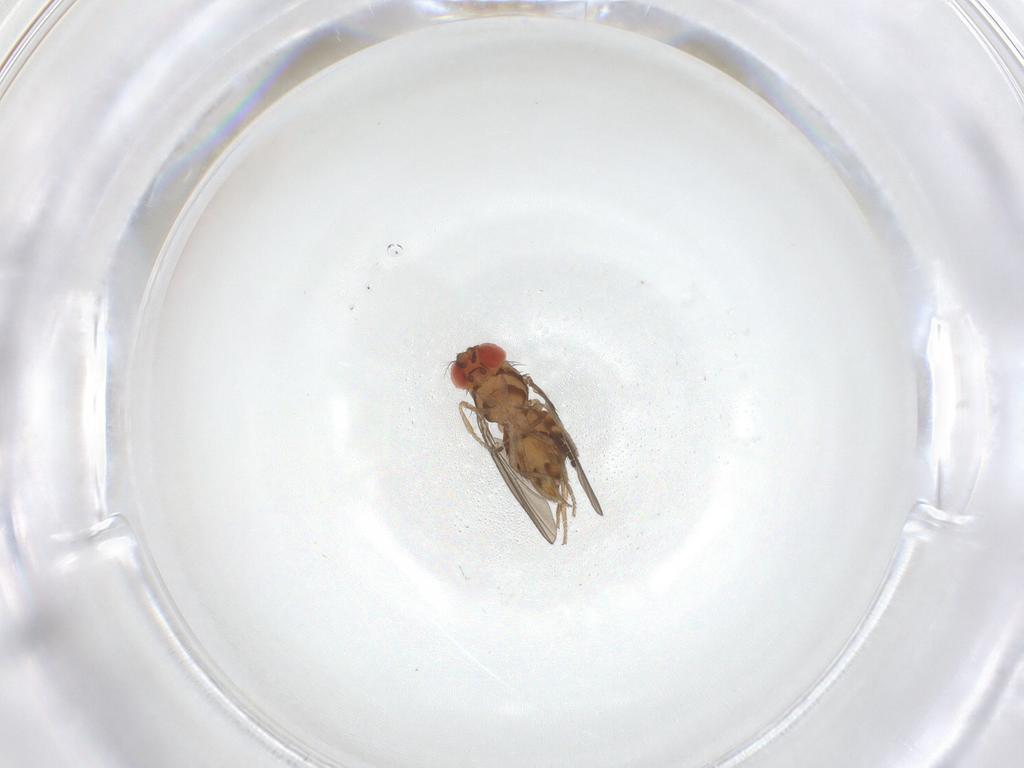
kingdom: Animalia
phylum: Arthropoda
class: Insecta
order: Diptera
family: Drosophilidae
